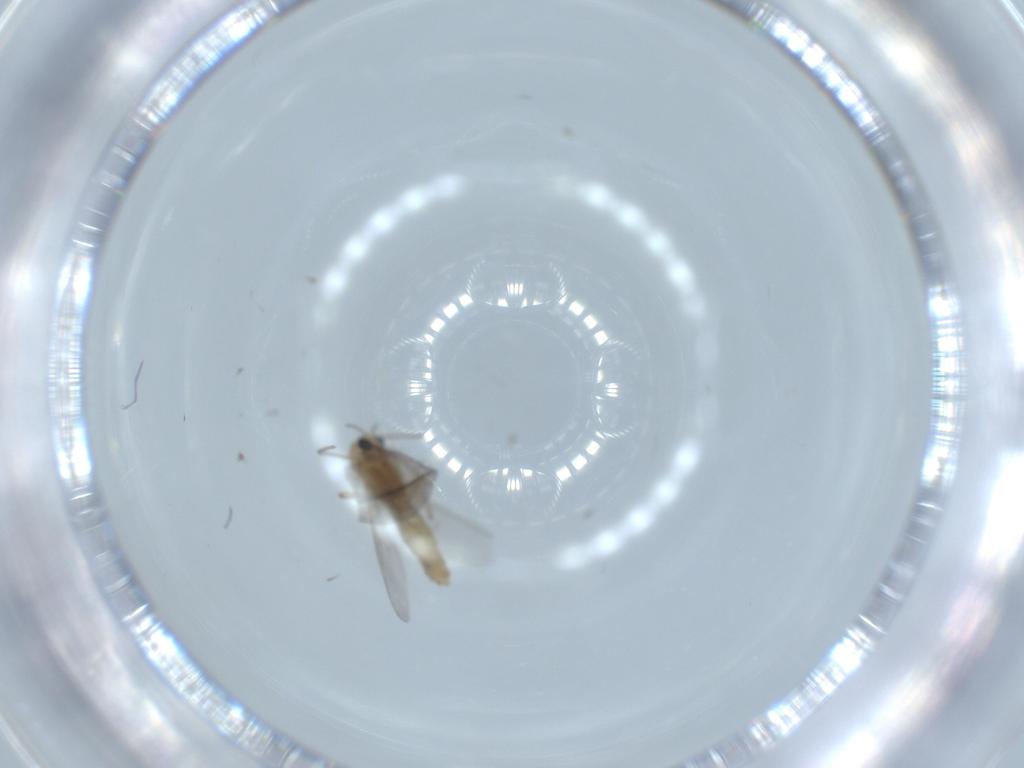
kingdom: Animalia
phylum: Arthropoda
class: Insecta
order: Diptera
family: Chironomidae
